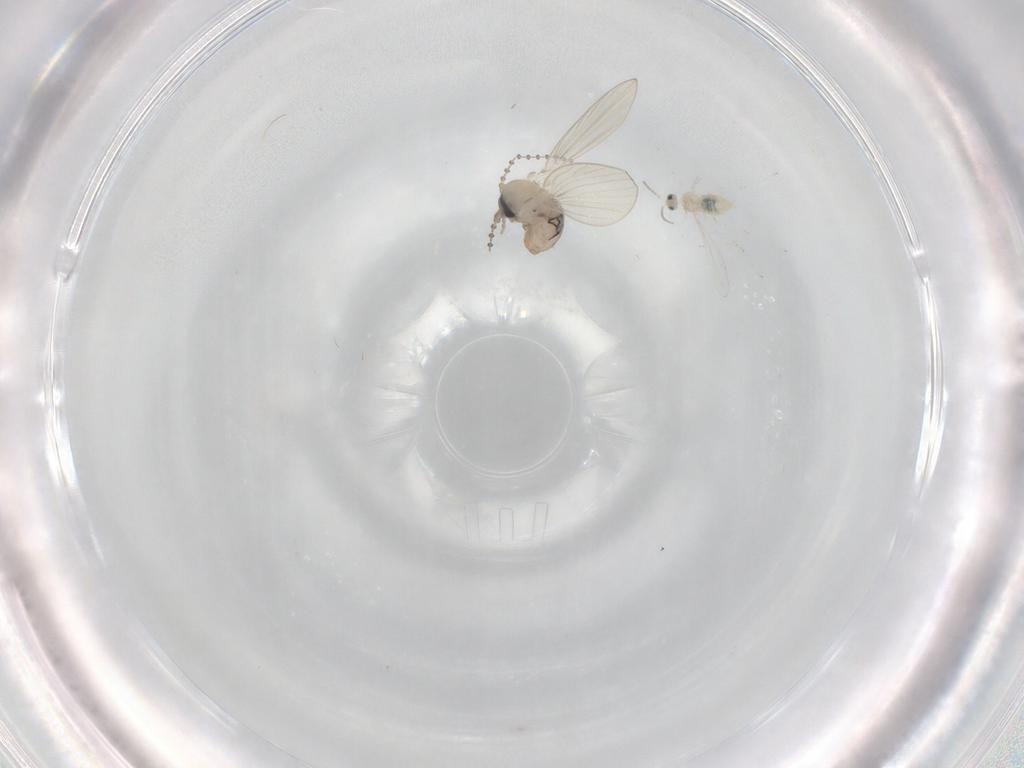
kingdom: Animalia
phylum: Arthropoda
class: Insecta
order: Diptera
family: Psychodidae
